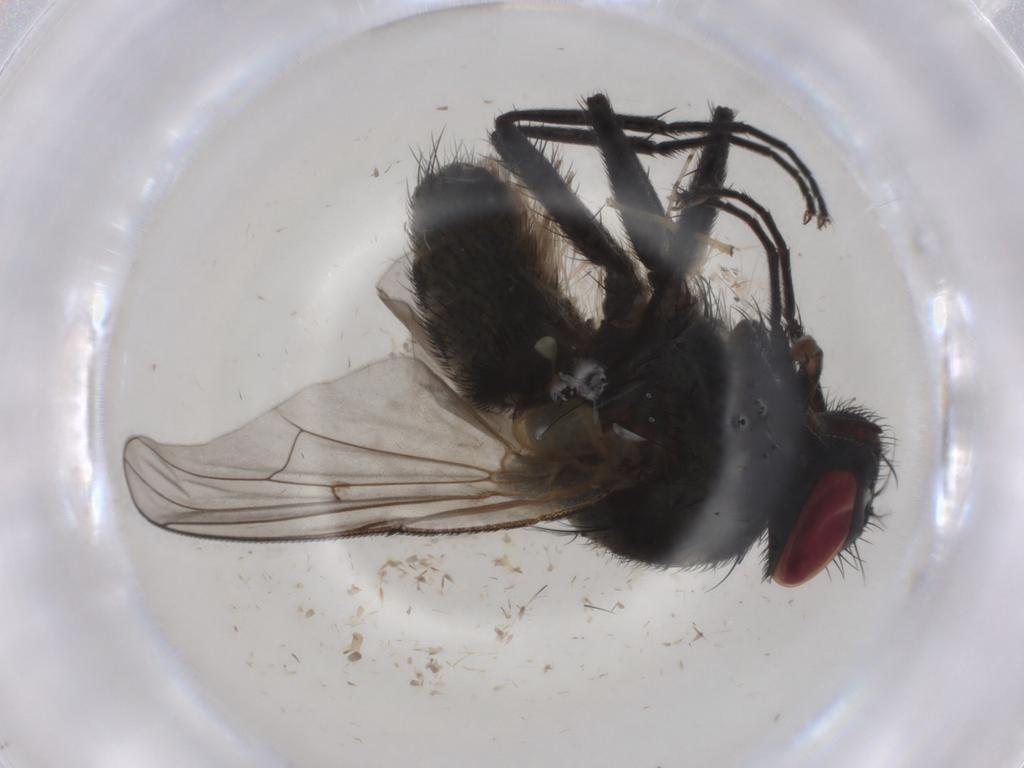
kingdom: Animalia
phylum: Arthropoda
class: Insecta
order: Diptera
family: Muscidae
